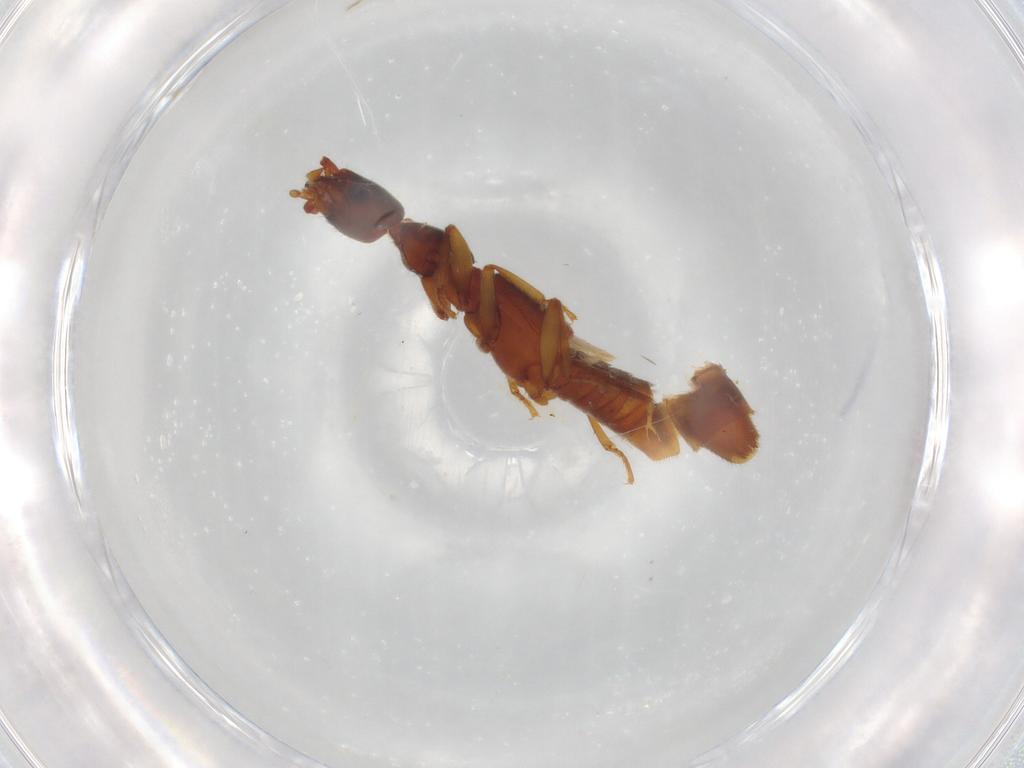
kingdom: Animalia
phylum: Arthropoda
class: Insecta
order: Coleoptera
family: Staphylinidae
